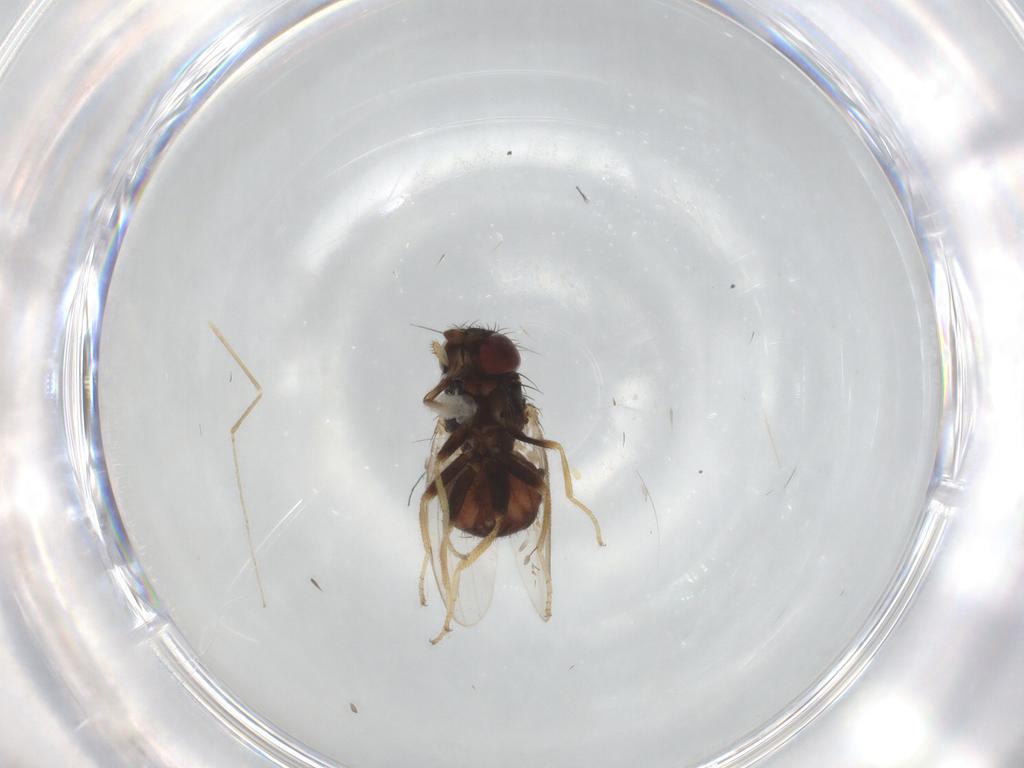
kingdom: Animalia
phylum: Arthropoda
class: Insecta
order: Diptera
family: Milichiidae
